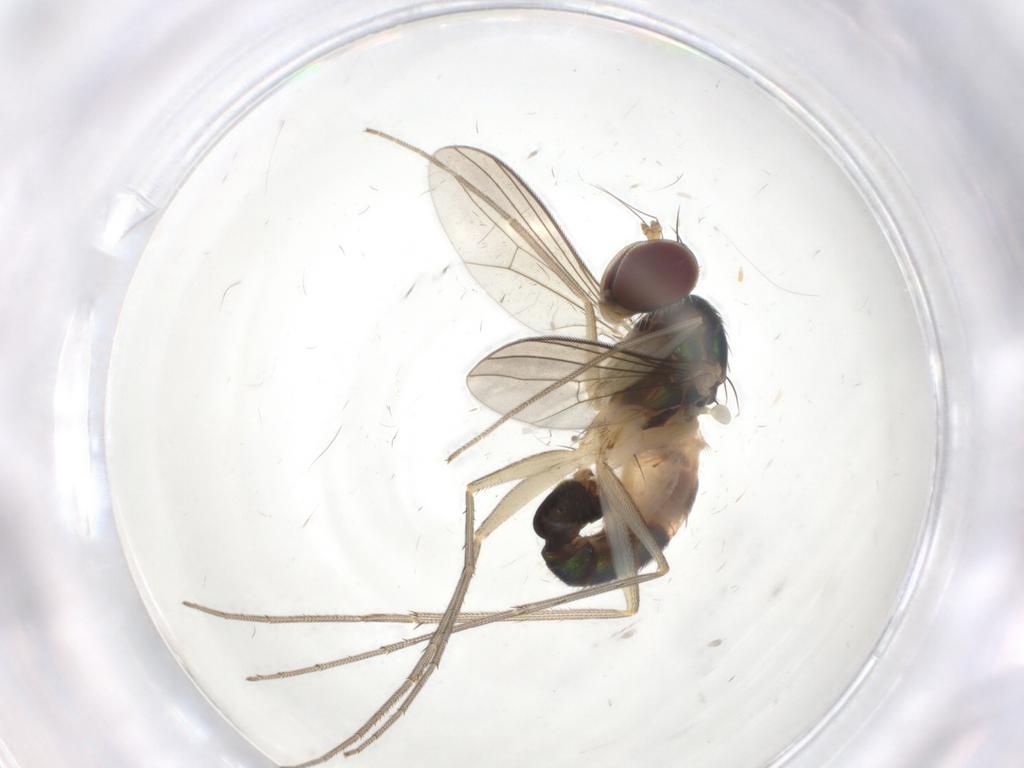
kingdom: Animalia
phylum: Arthropoda
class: Insecta
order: Diptera
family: Dolichopodidae
